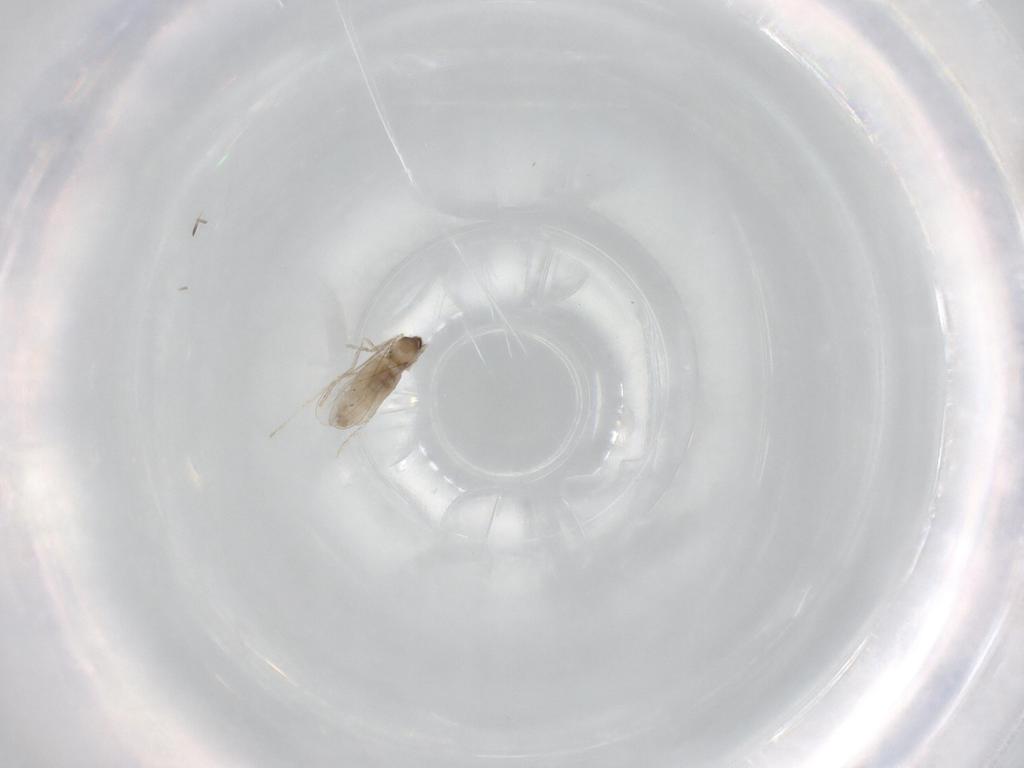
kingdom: Animalia
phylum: Arthropoda
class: Insecta
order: Diptera
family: Cecidomyiidae
